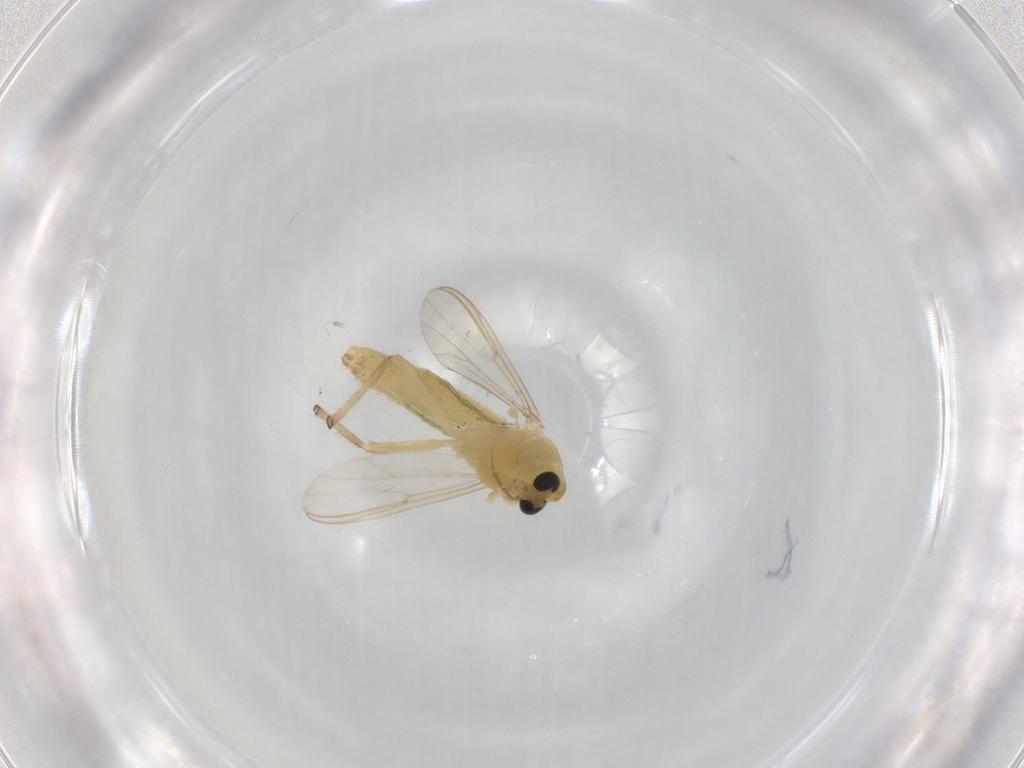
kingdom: Animalia
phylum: Arthropoda
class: Insecta
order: Diptera
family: Chironomidae
